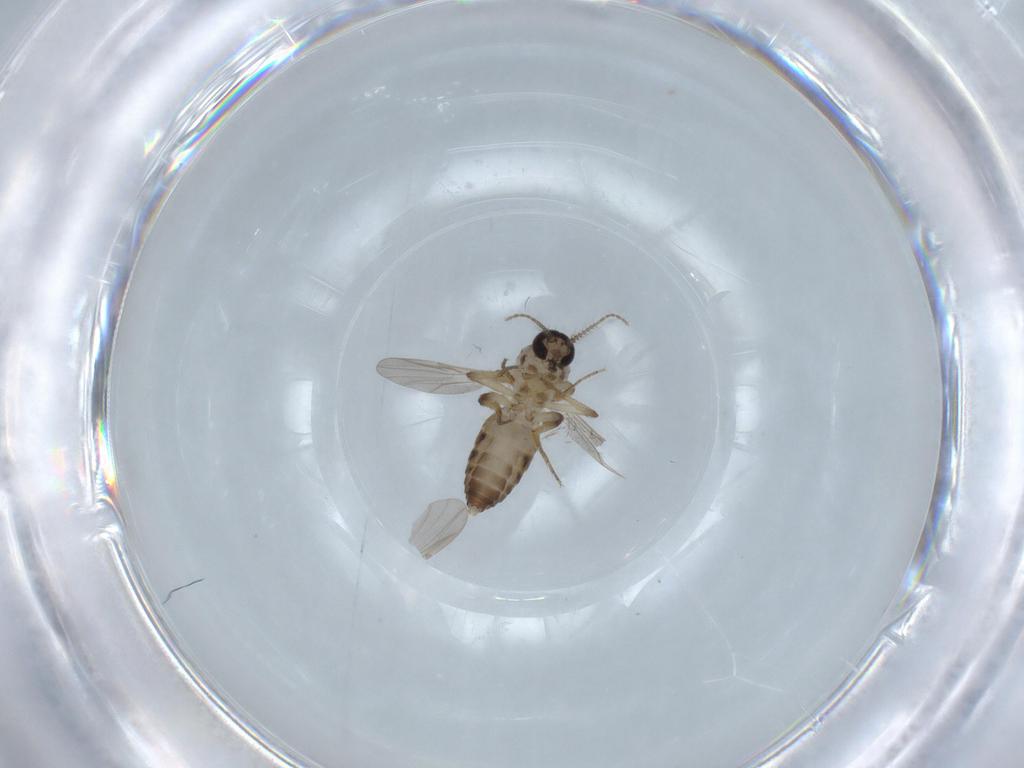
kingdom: Animalia
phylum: Arthropoda
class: Insecta
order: Diptera
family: Ceratopogonidae
